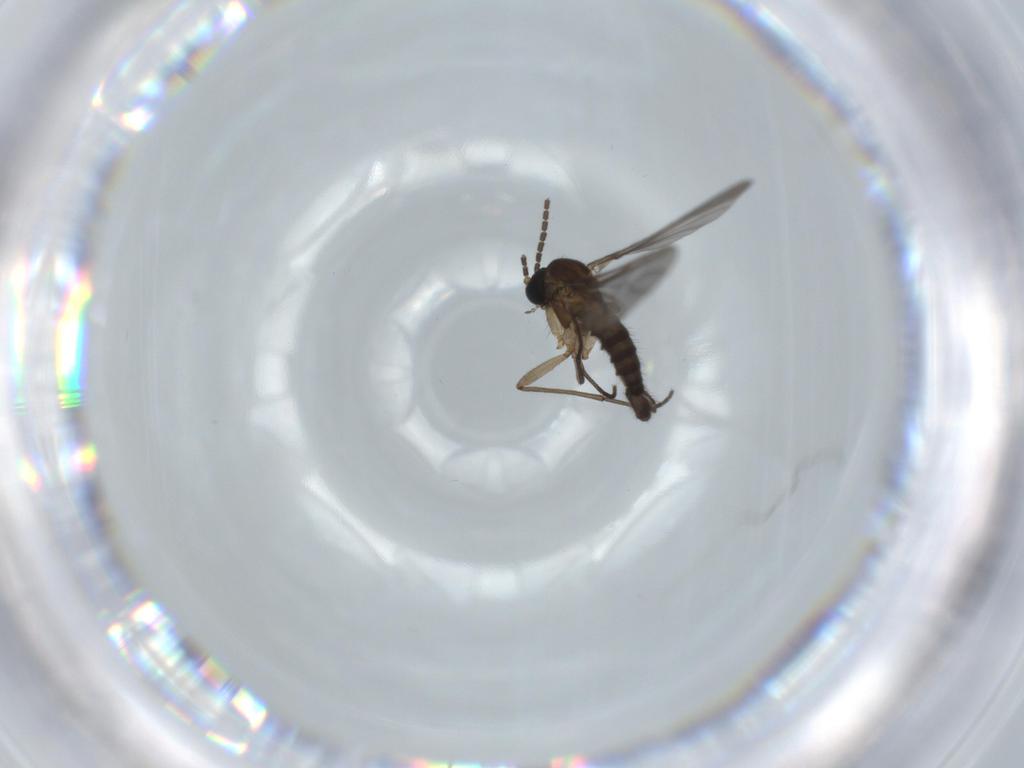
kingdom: Animalia
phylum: Arthropoda
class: Insecta
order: Diptera
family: Sciaridae
